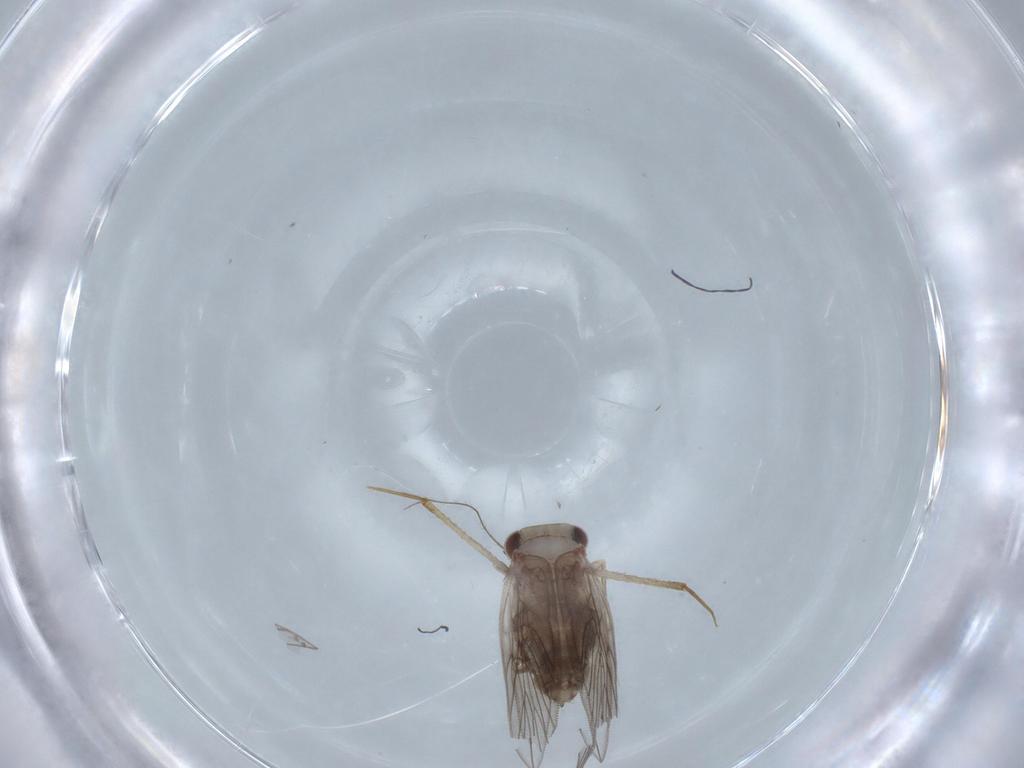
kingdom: Animalia
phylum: Arthropoda
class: Insecta
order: Psocodea
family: Lepidopsocidae
